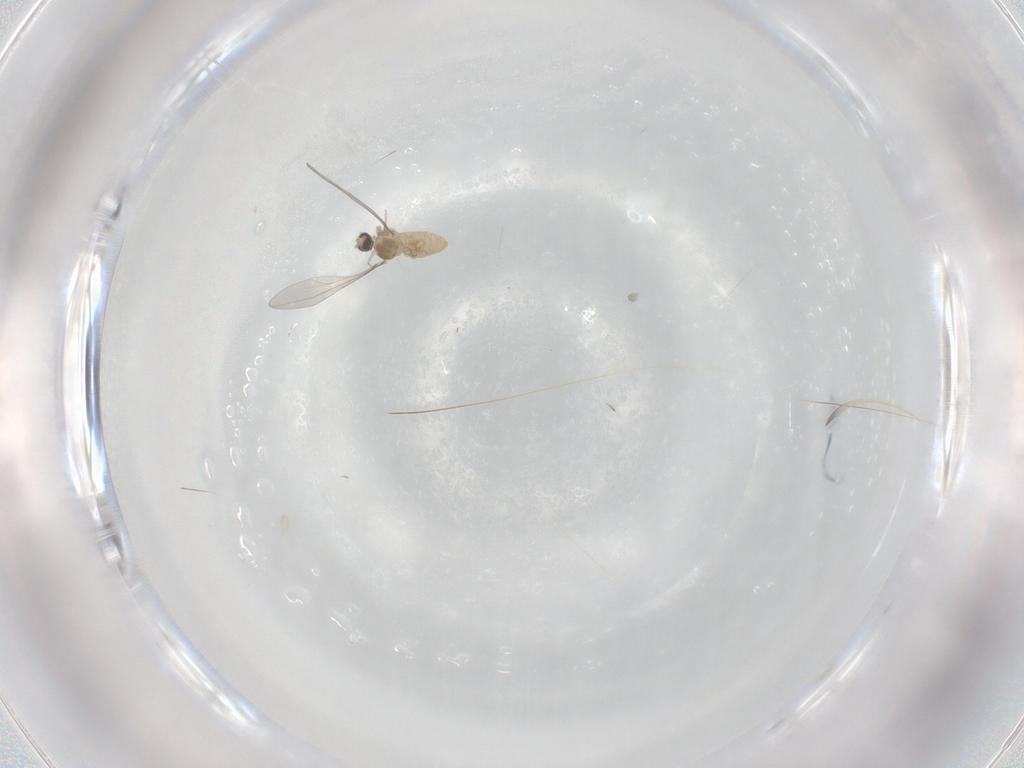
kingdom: Animalia
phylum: Arthropoda
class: Insecta
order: Diptera
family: Cecidomyiidae
